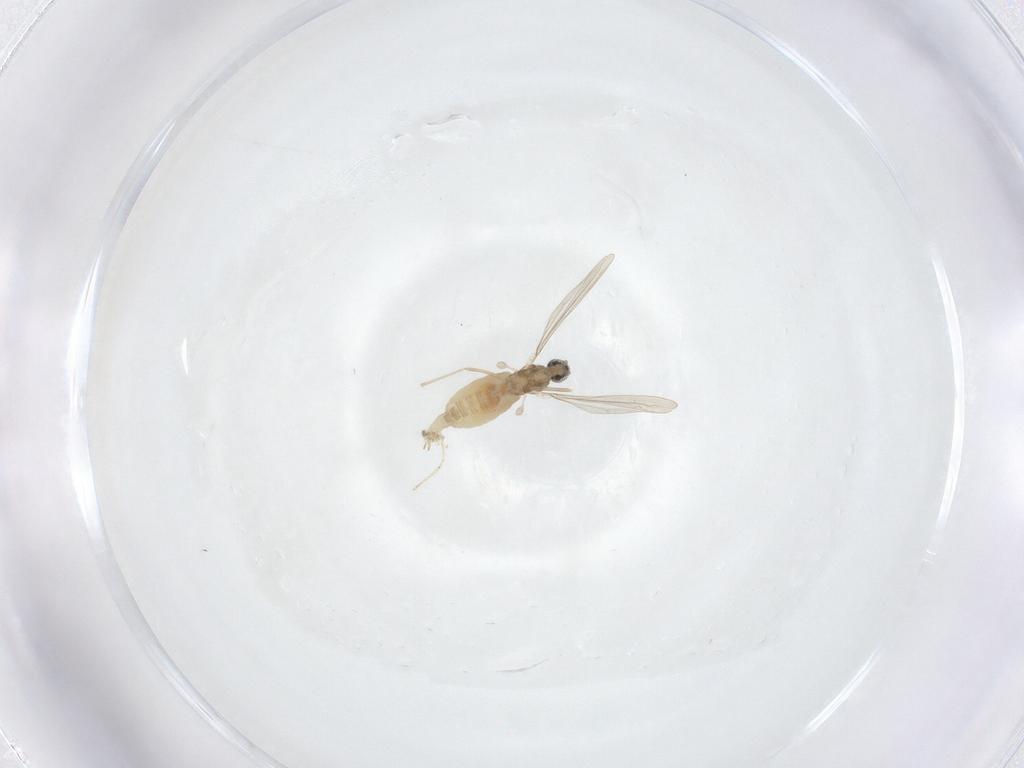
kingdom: Animalia
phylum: Arthropoda
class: Insecta
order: Diptera
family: Cecidomyiidae
